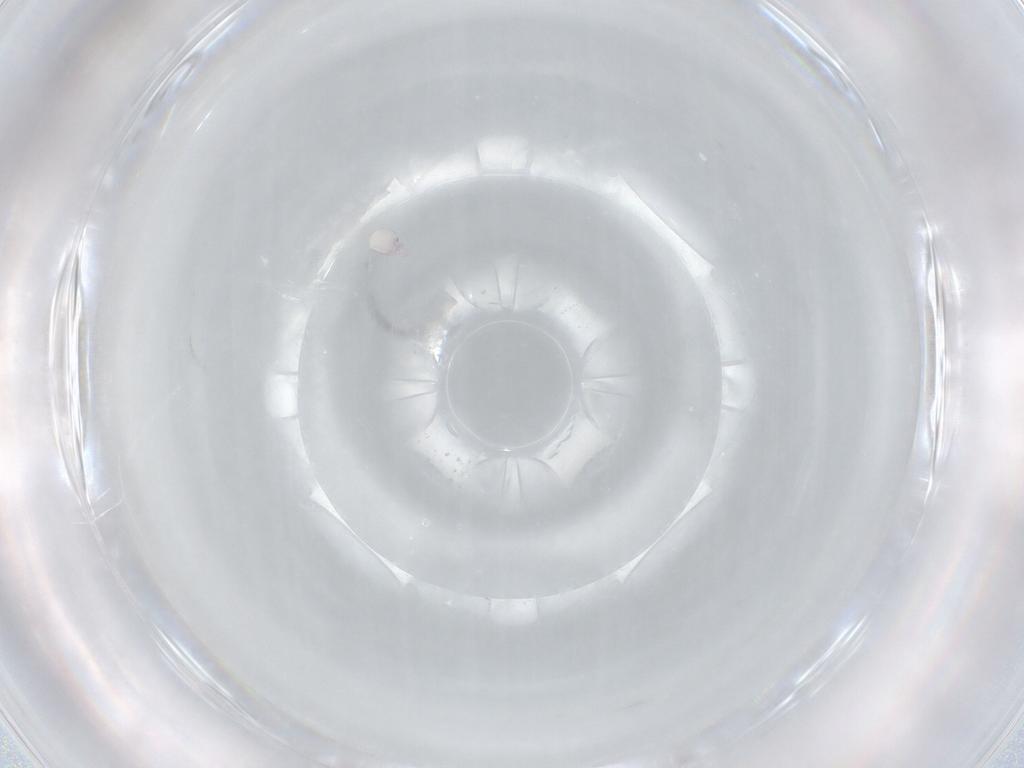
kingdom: Animalia
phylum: Arthropoda
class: Arachnida
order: Trombidiformes
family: Arrenuridae
